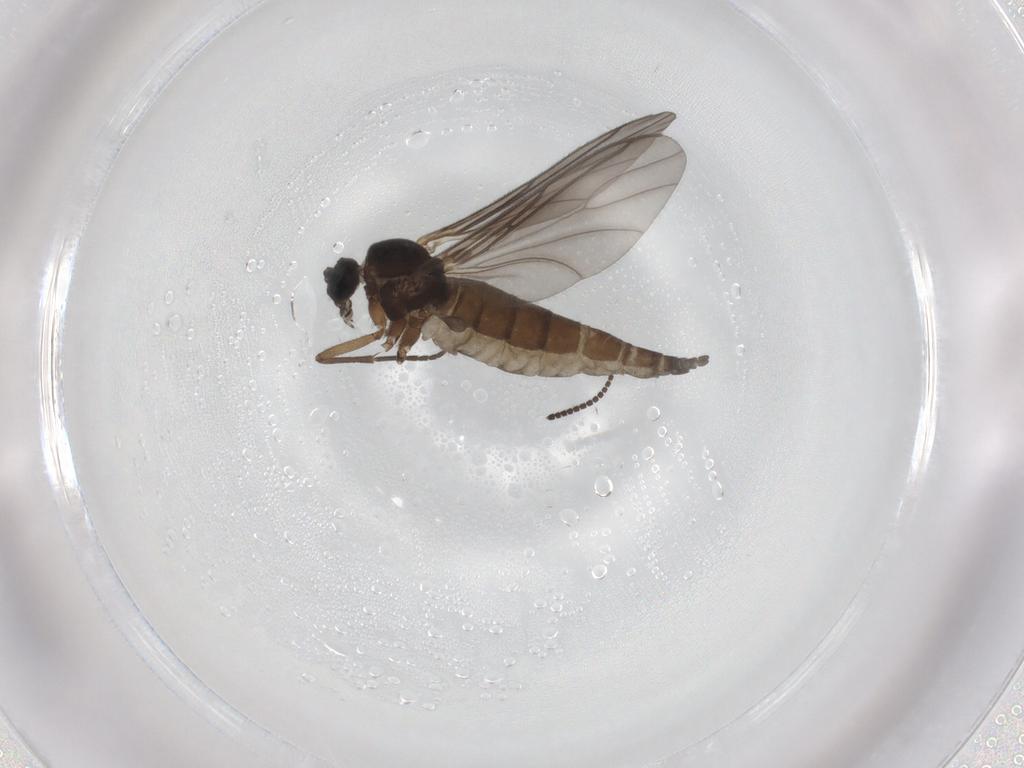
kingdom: Animalia
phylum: Arthropoda
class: Insecta
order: Diptera
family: Sciaridae
